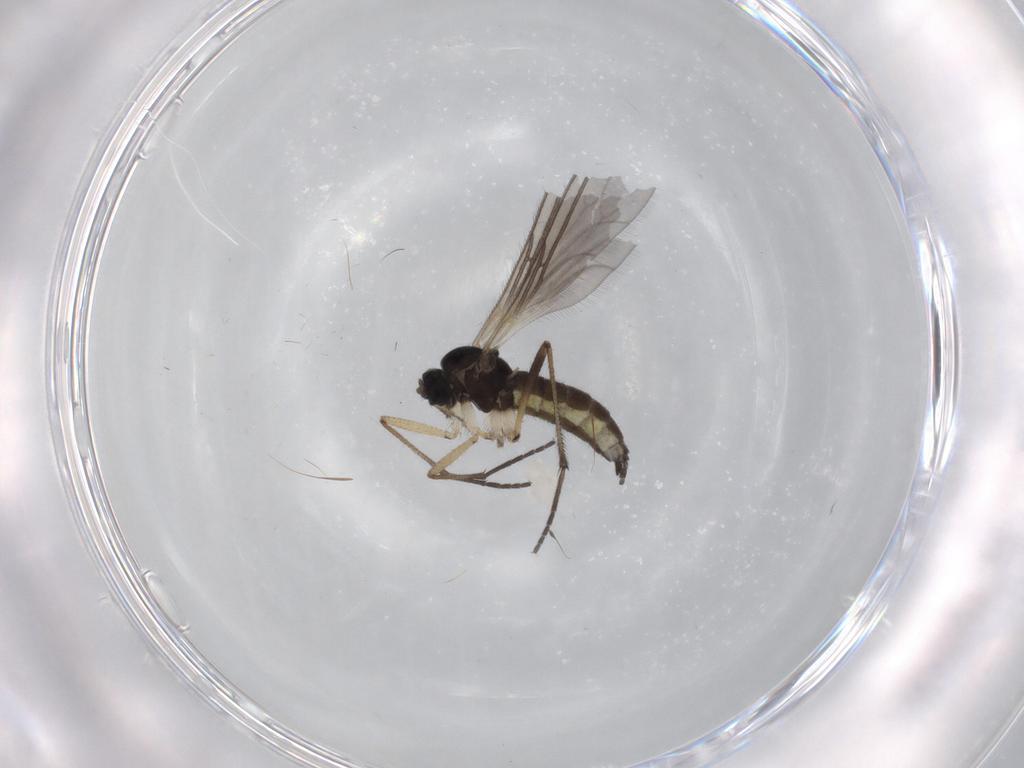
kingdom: Animalia
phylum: Arthropoda
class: Insecta
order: Diptera
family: Sciaridae
